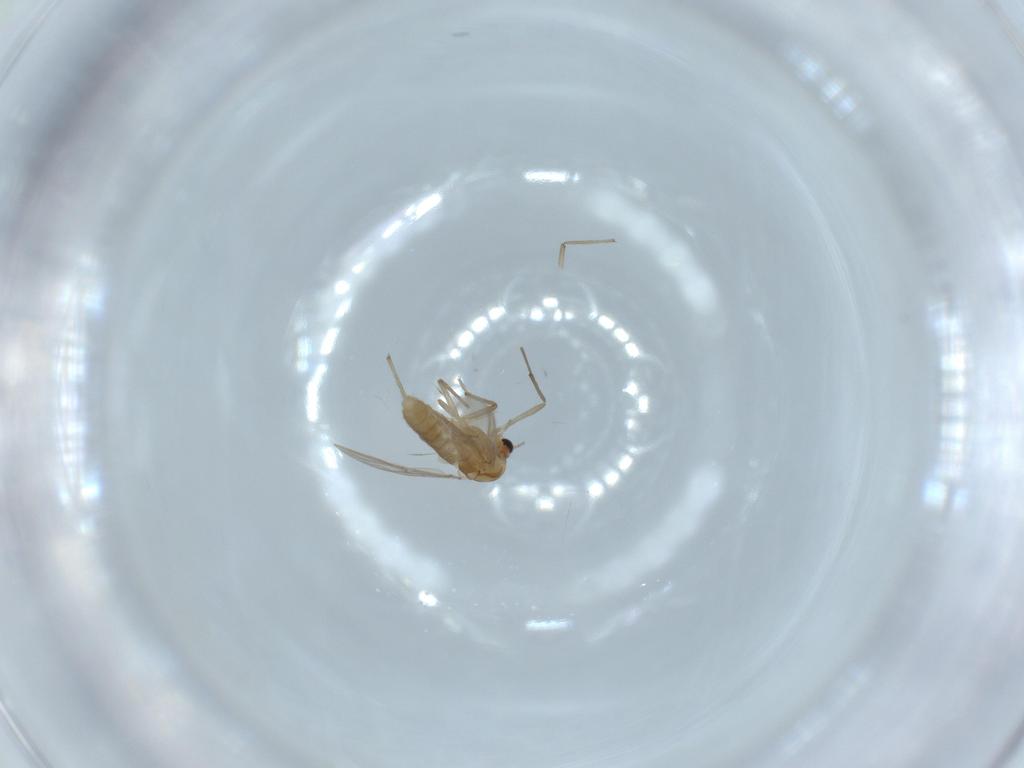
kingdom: Animalia
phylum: Arthropoda
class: Insecta
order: Diptera
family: Chironomidae
